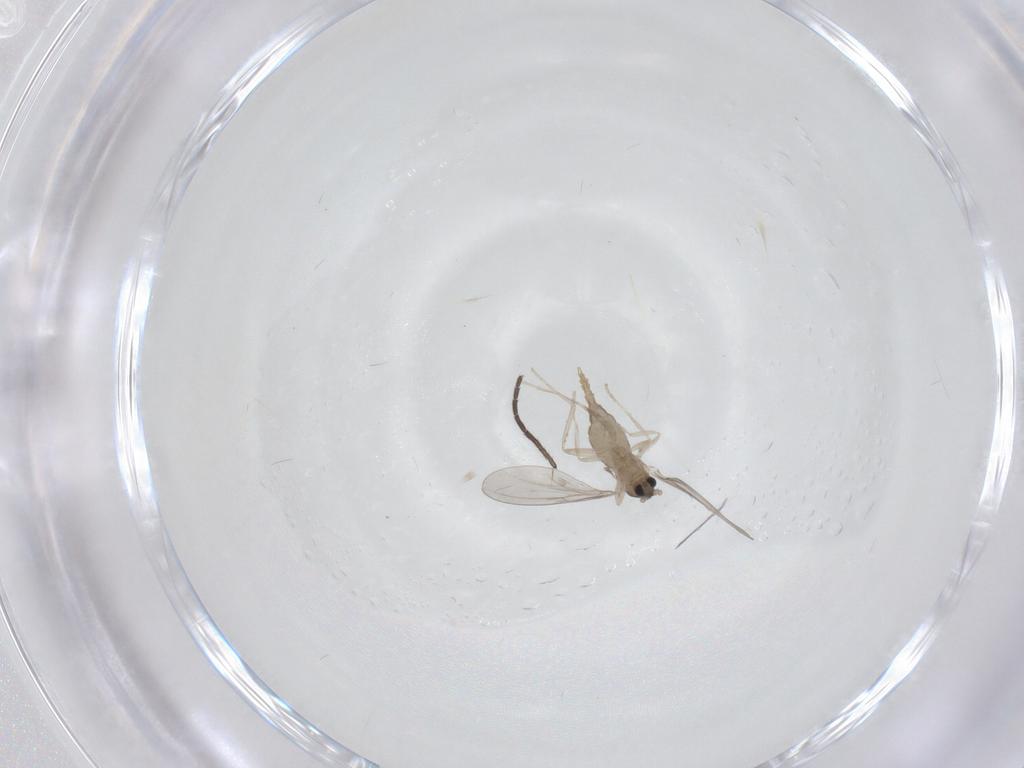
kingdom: Animalia
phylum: Arthropoda
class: Insecta
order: Diptera
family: Cecidomyiidae
